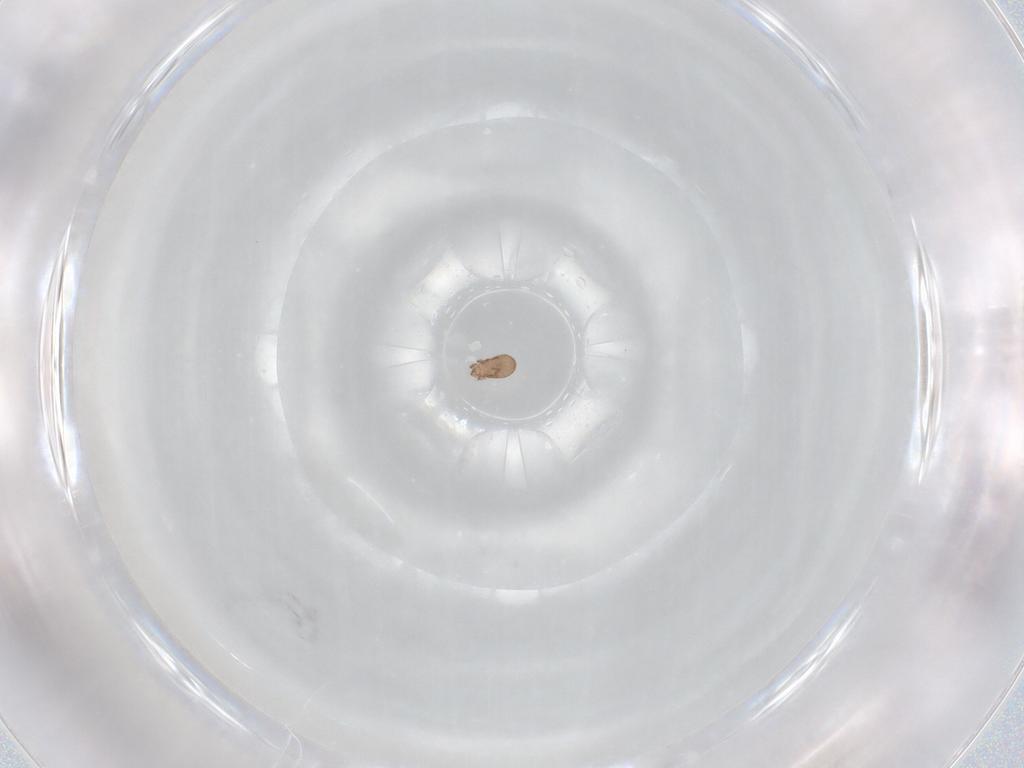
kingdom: Animalia
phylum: Arthropoda
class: Arachnida
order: Sarcoptiformes
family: Eremaeidae
